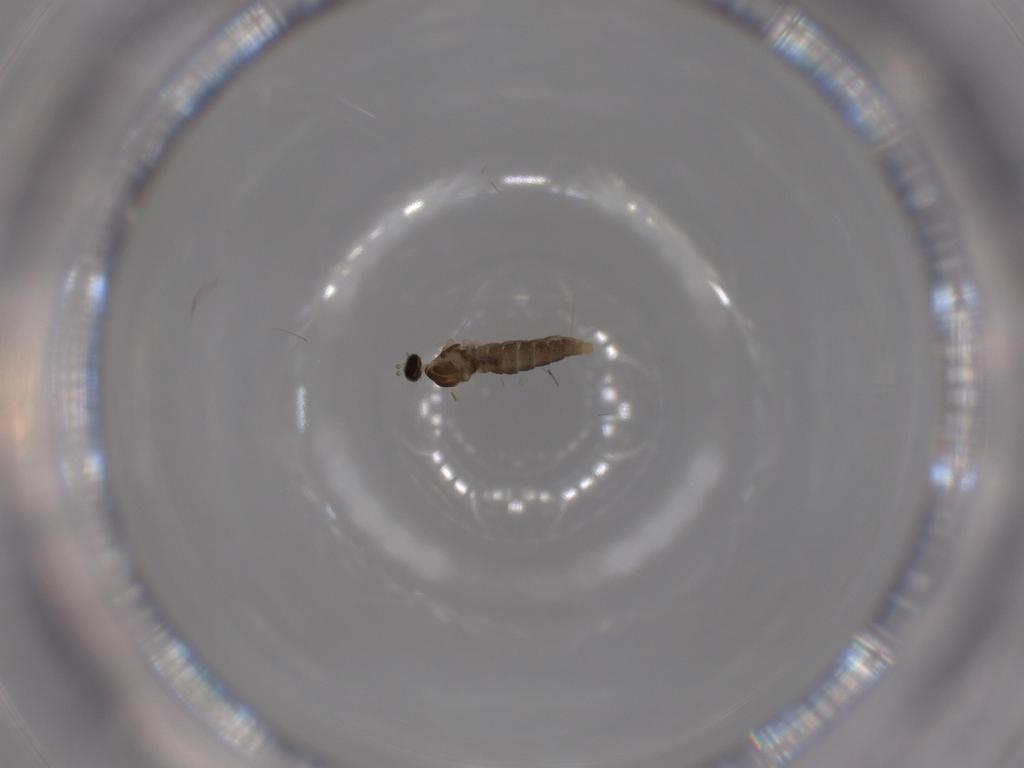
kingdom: Animalia
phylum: Arthropoda
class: Insecta
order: Diptera
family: Cecidomyiidae
